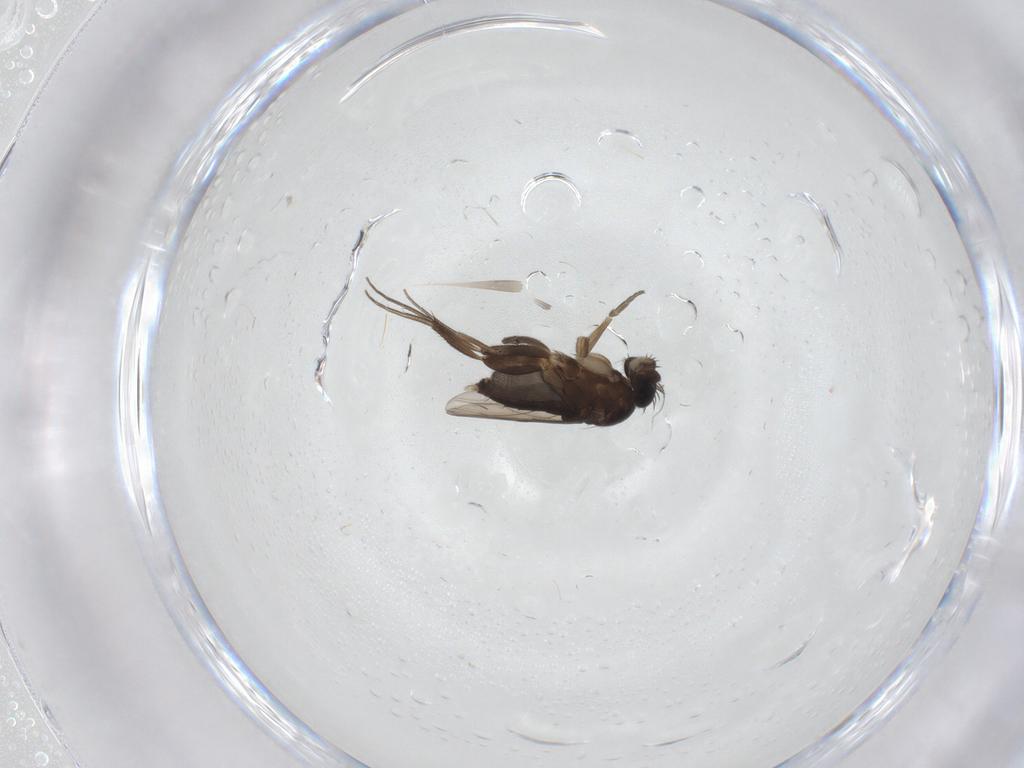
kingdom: Animalia
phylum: Arthropoda
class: Insecta
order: Diptera
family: Phoridae
